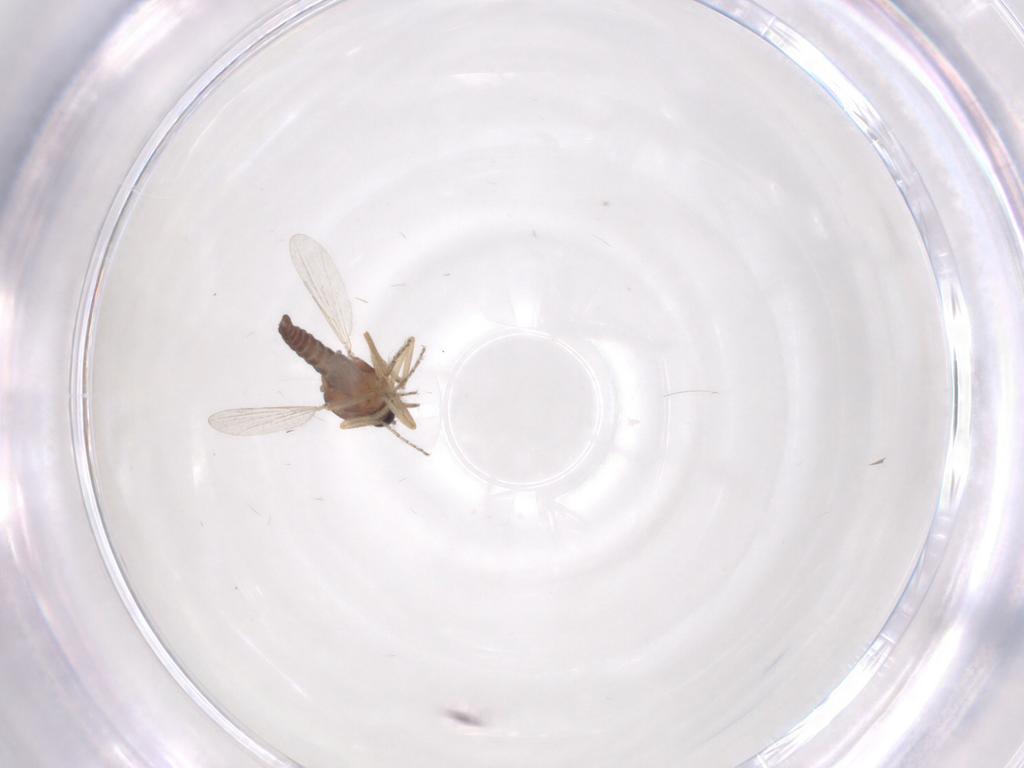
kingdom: Animalia
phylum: Arthropoda
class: Insecta
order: Diptera
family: Ceratopogonidae
